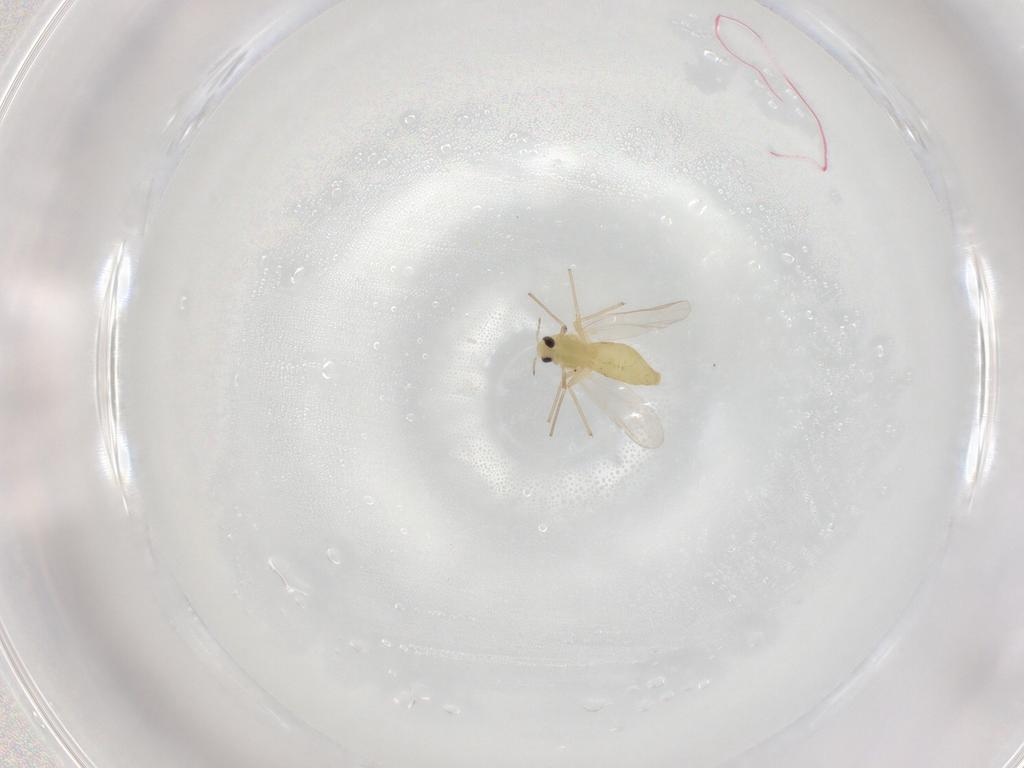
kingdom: Animalia
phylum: Arthropoda
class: Insecta
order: Diptera
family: Chironomidae
